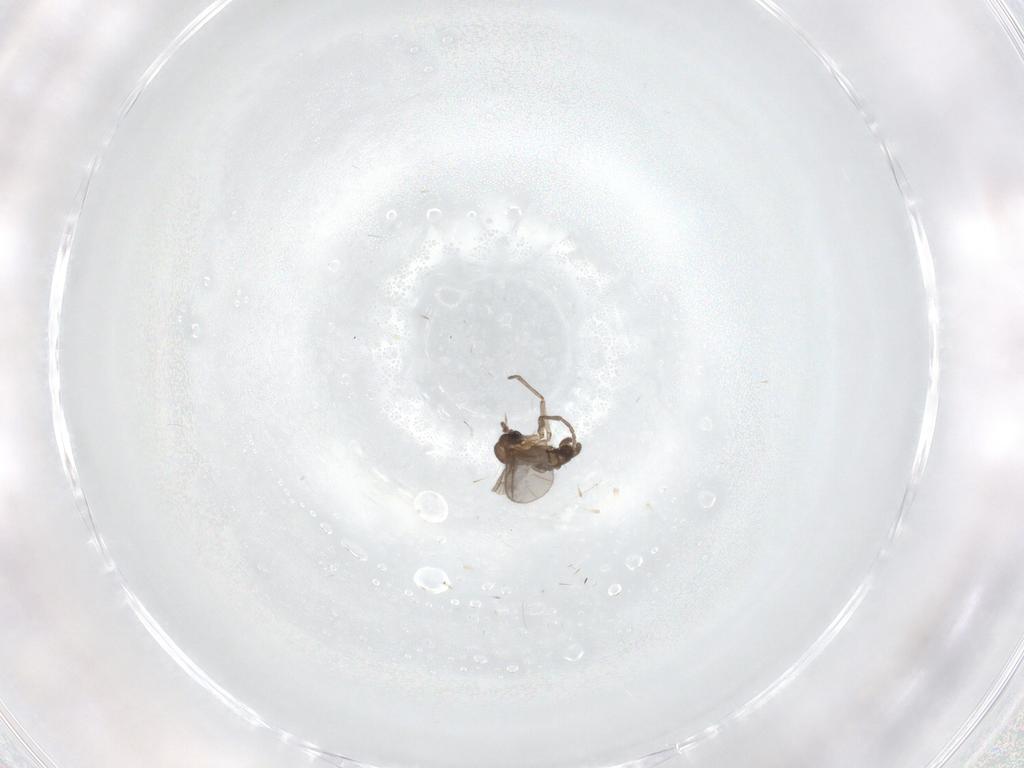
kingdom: Animalia
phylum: Arthropoda
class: Insecta
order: Diptera
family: Sciaridae
